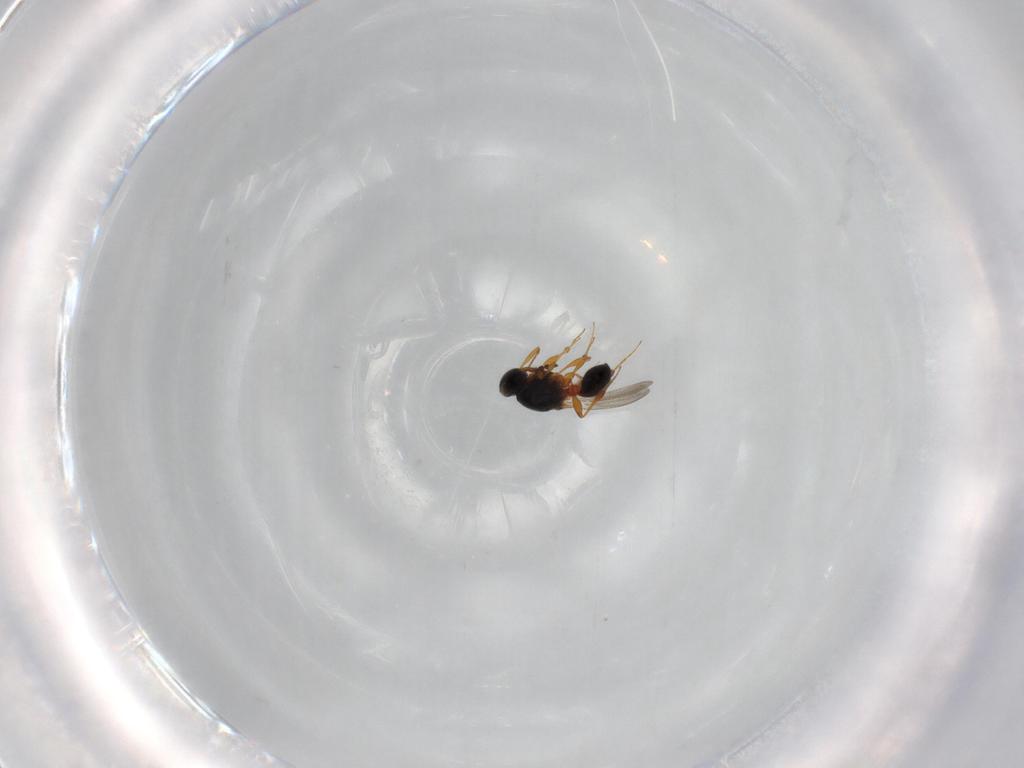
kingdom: Animalia
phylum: Arthropoda
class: Insecta
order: Hymenoptera
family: Platygastridae
